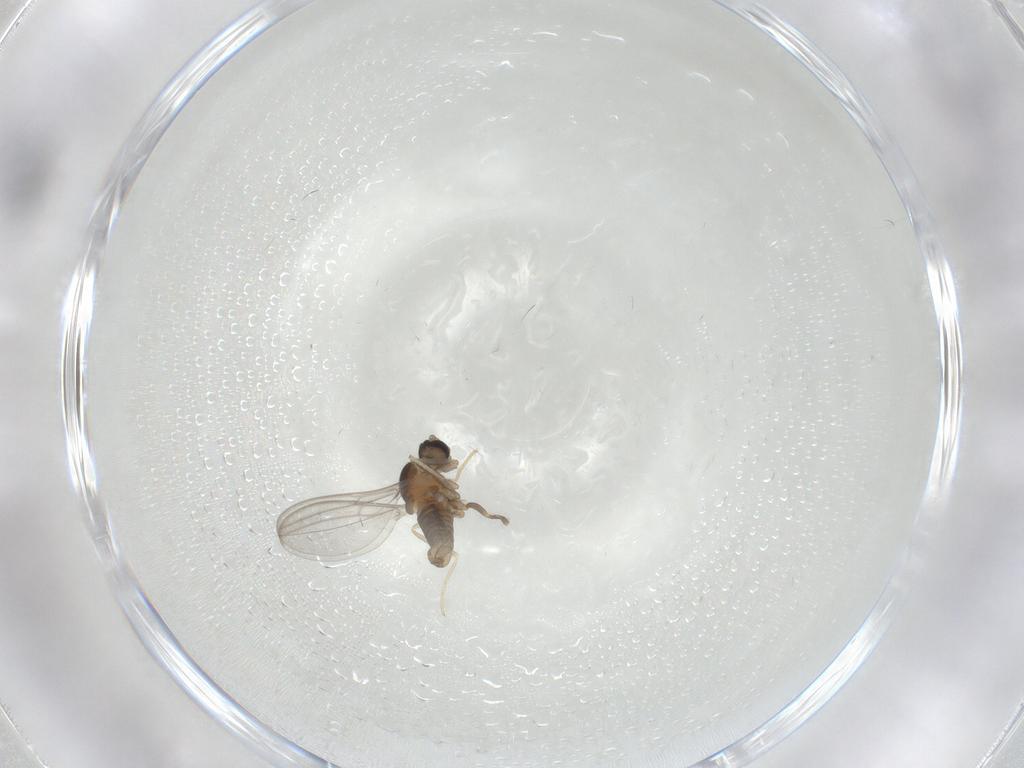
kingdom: Animalia
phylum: Arthropoda
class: Insecta
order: Diptera
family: Cecidomyiidae
